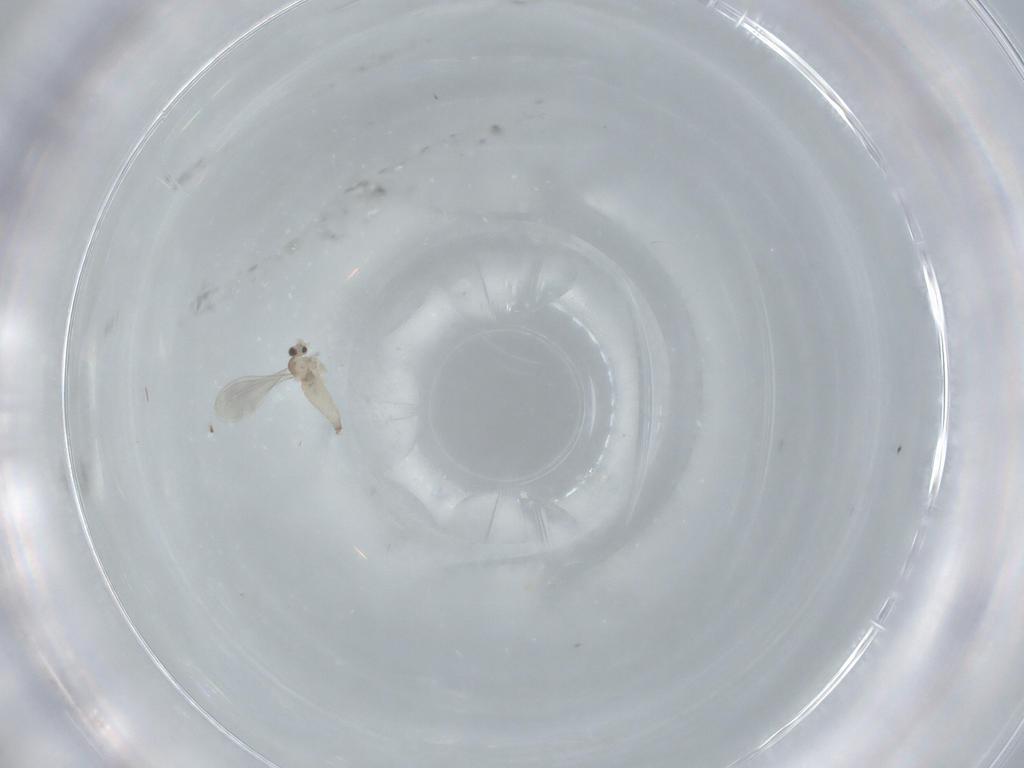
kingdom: Animalia
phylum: Arthropoda
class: Insecta
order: Diptera
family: Cecidomyiidae
